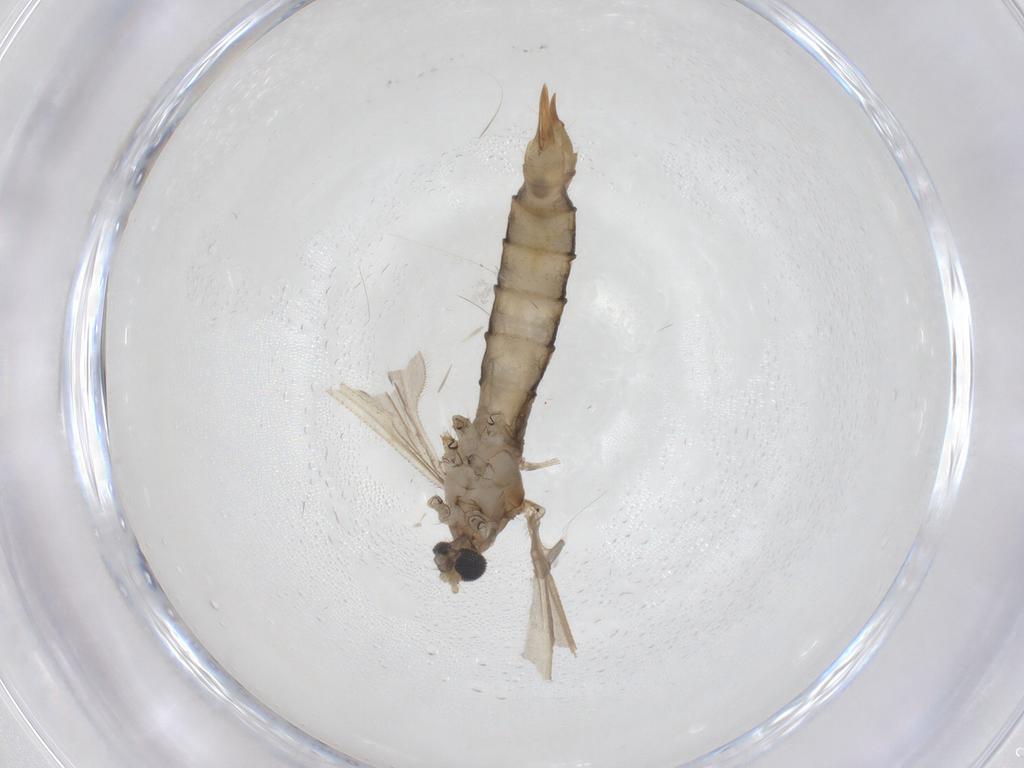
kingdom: Animalia
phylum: Arthropoda
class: Insecta
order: Diptera
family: Limoniidae
